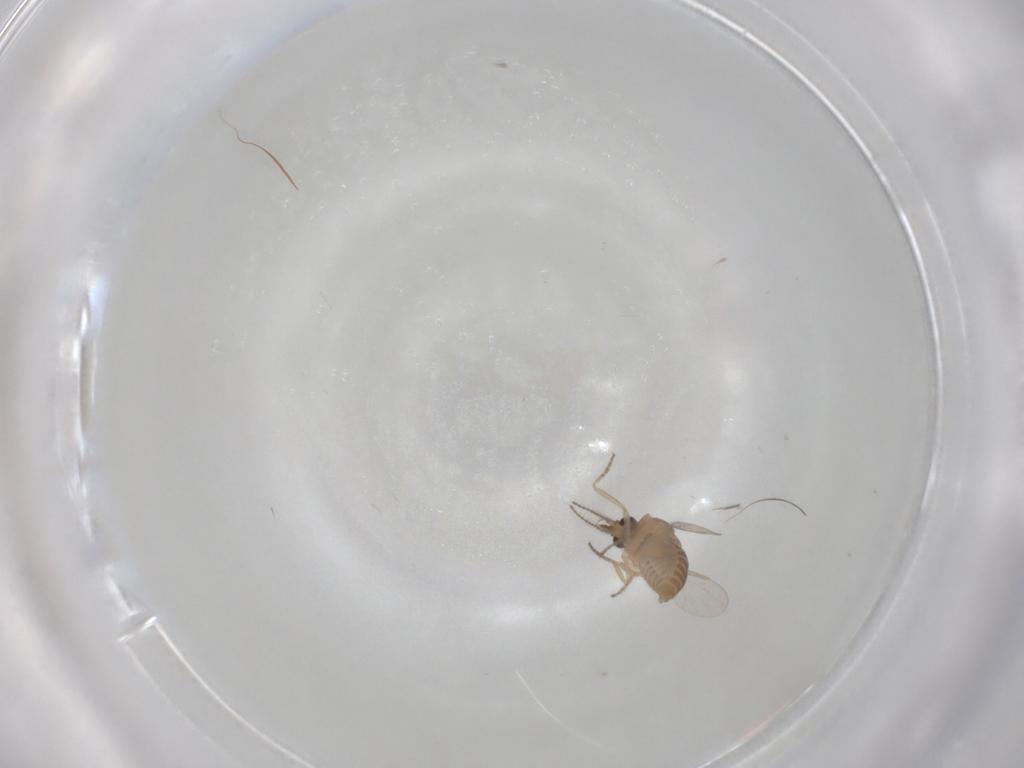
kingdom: Animalia
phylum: Arthropoda
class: Insecta
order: Diptera
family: Ceratopogonidae
